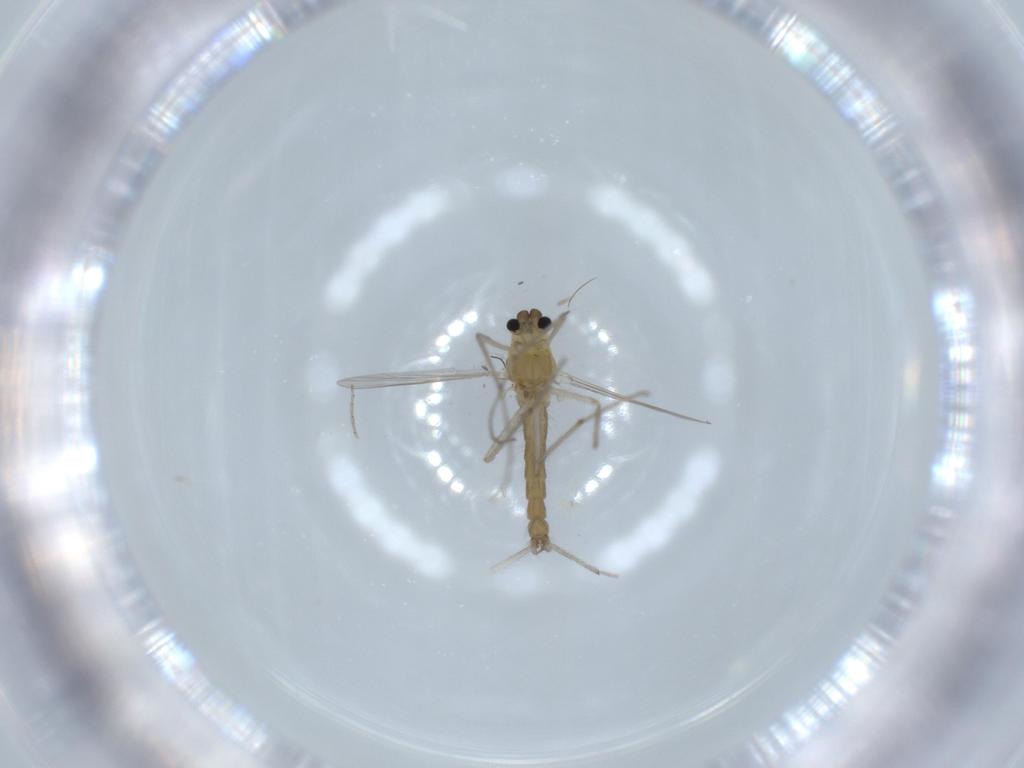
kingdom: Animalia
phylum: Arthropoda
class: Insecta
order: Diptera
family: Chironomidae
